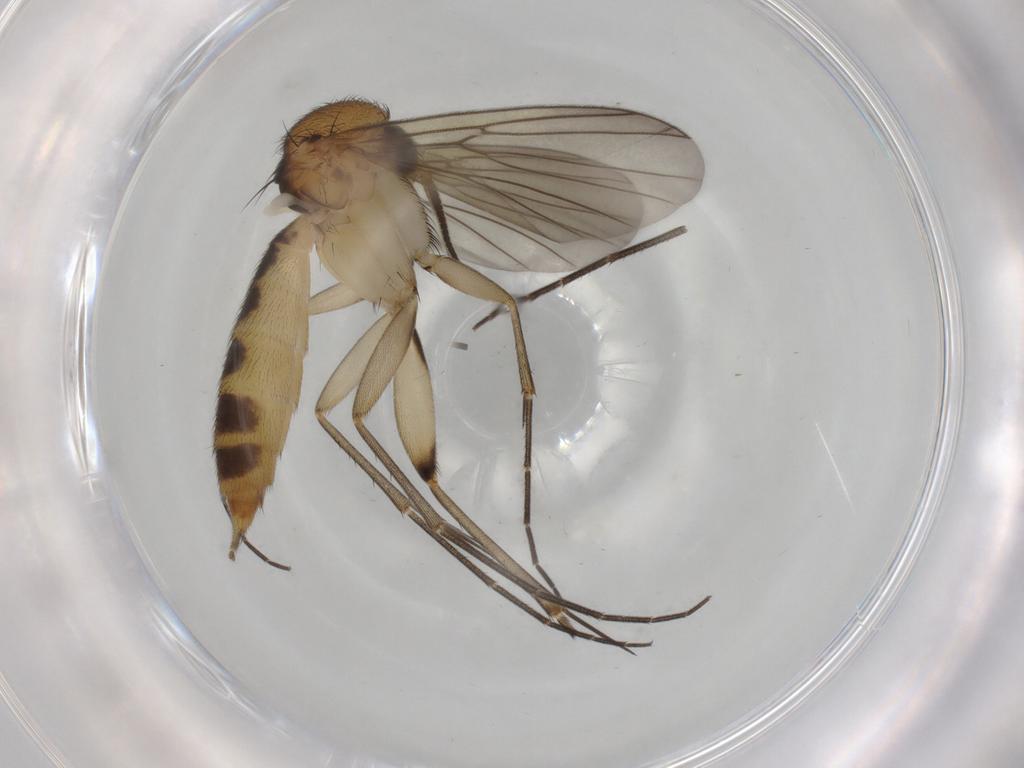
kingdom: Animalia
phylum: Arthropoda
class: Insecta
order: Diptera
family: Mycetophilidae
